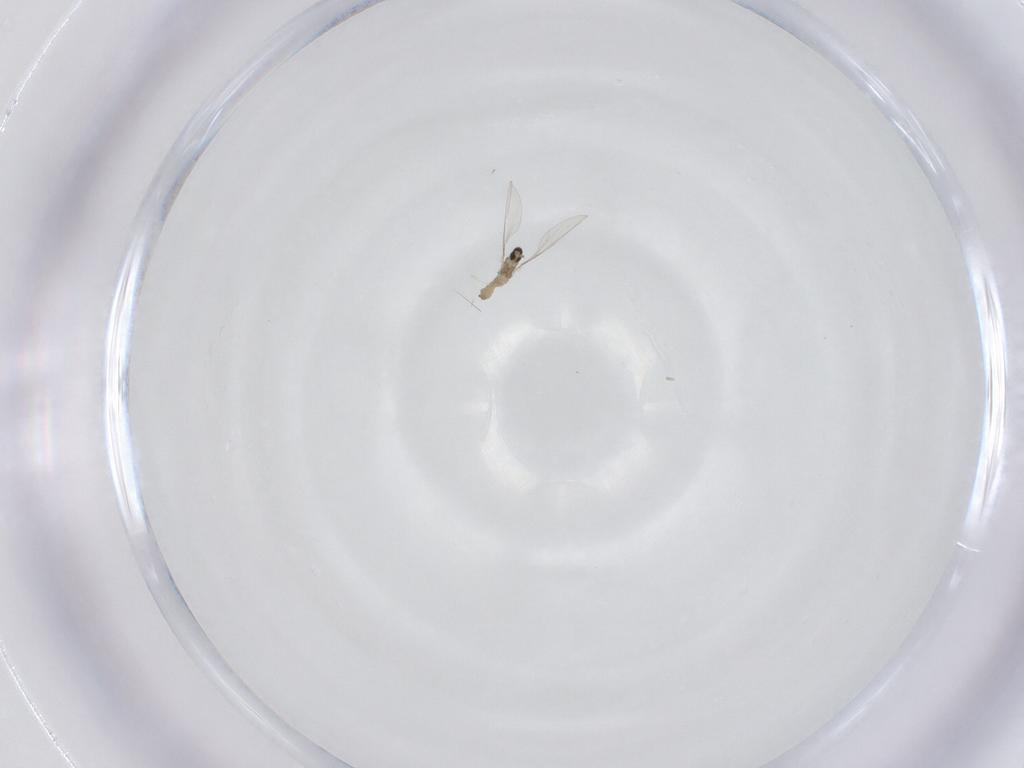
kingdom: Animalia
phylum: Arthropoda
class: Insecta
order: Diptera
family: Cecidomyiidae
